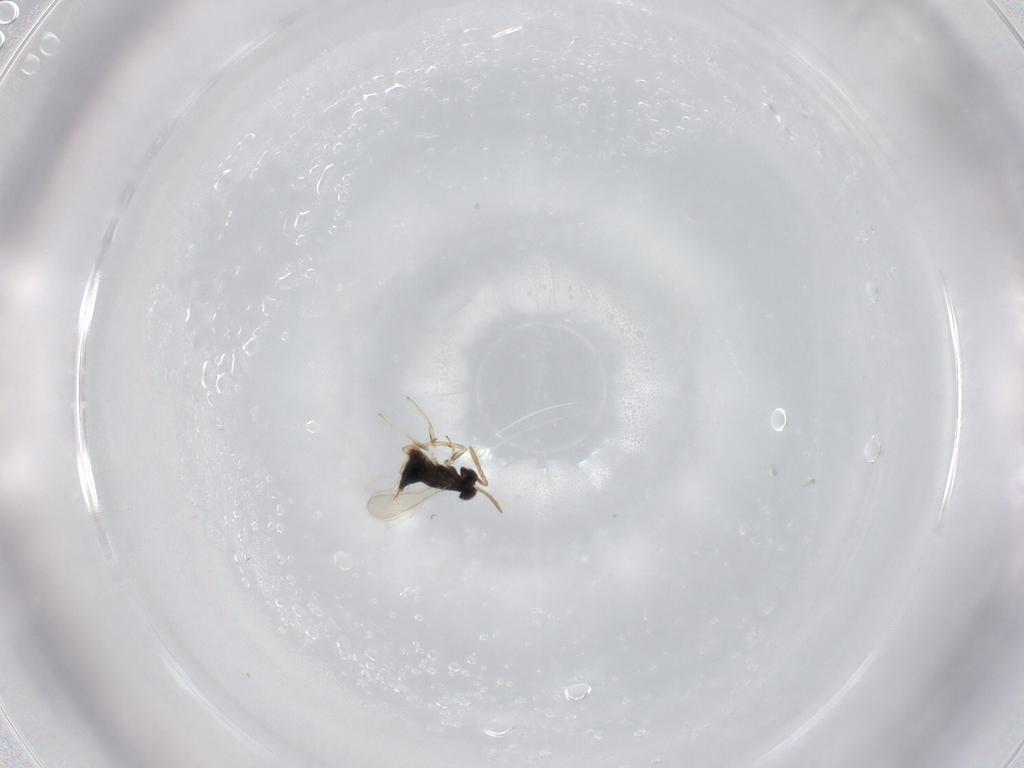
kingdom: Animalia
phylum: Arthropoda
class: Insecta
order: Hymenoptera
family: Aphelinidae
